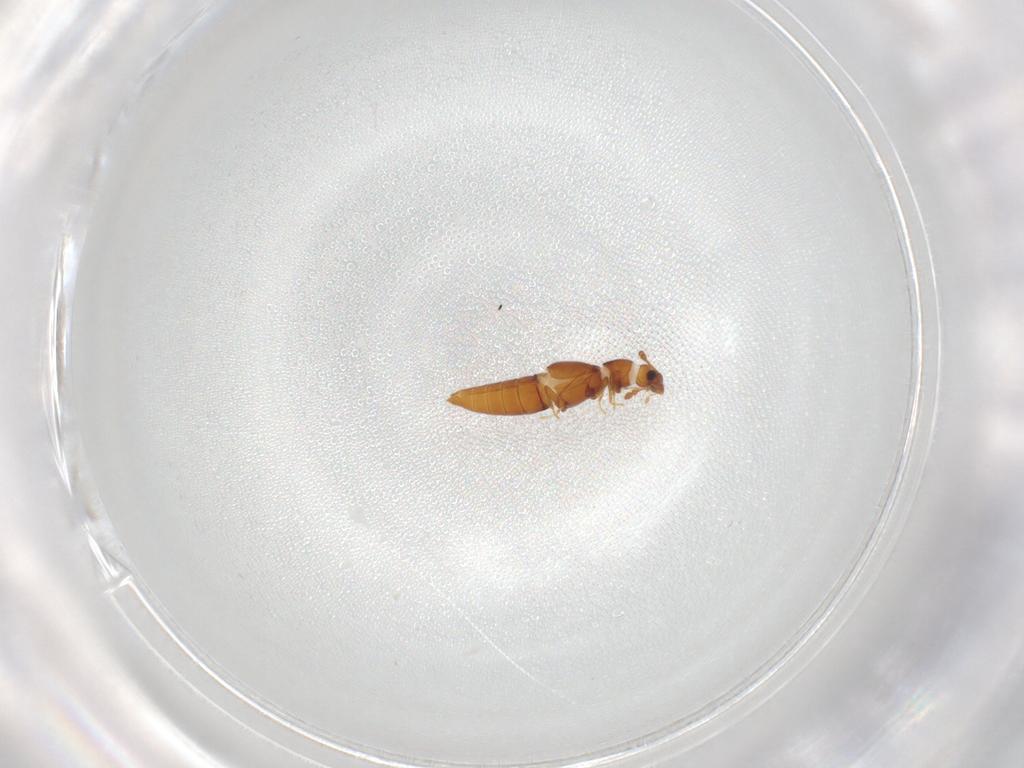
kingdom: Animalia
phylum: Arthropoda
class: Insecta
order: Coleoptera
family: Staphylinidae
